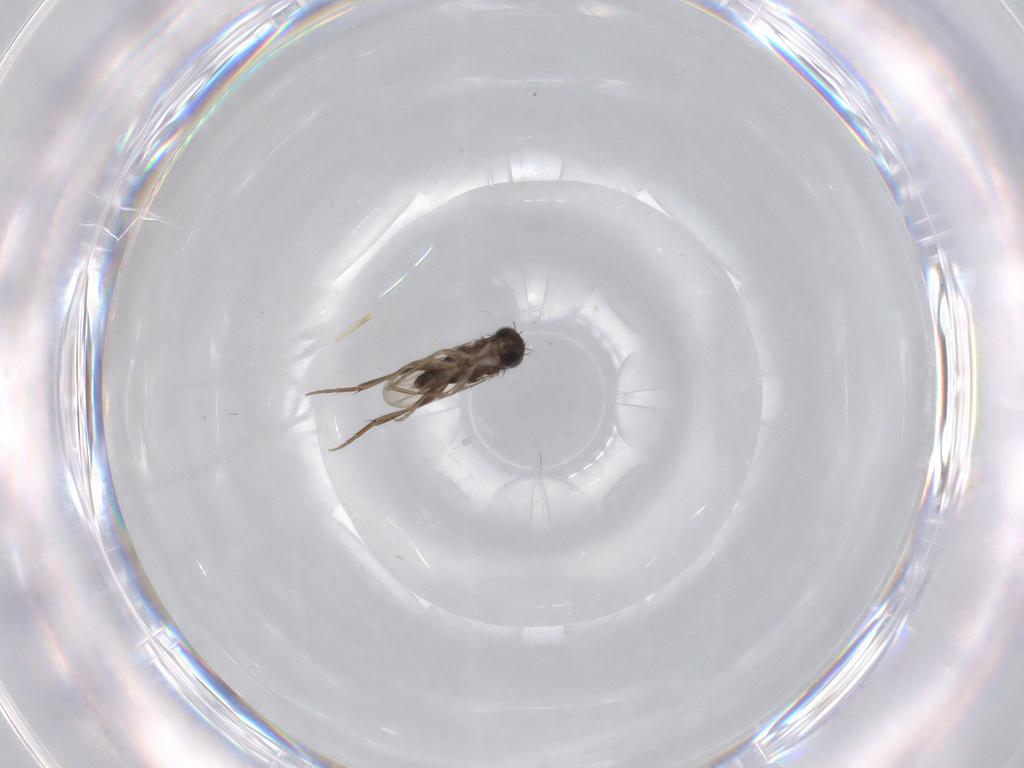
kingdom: Animalia
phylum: Arthropoda
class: Insecta
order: Diptera
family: Phoridae
